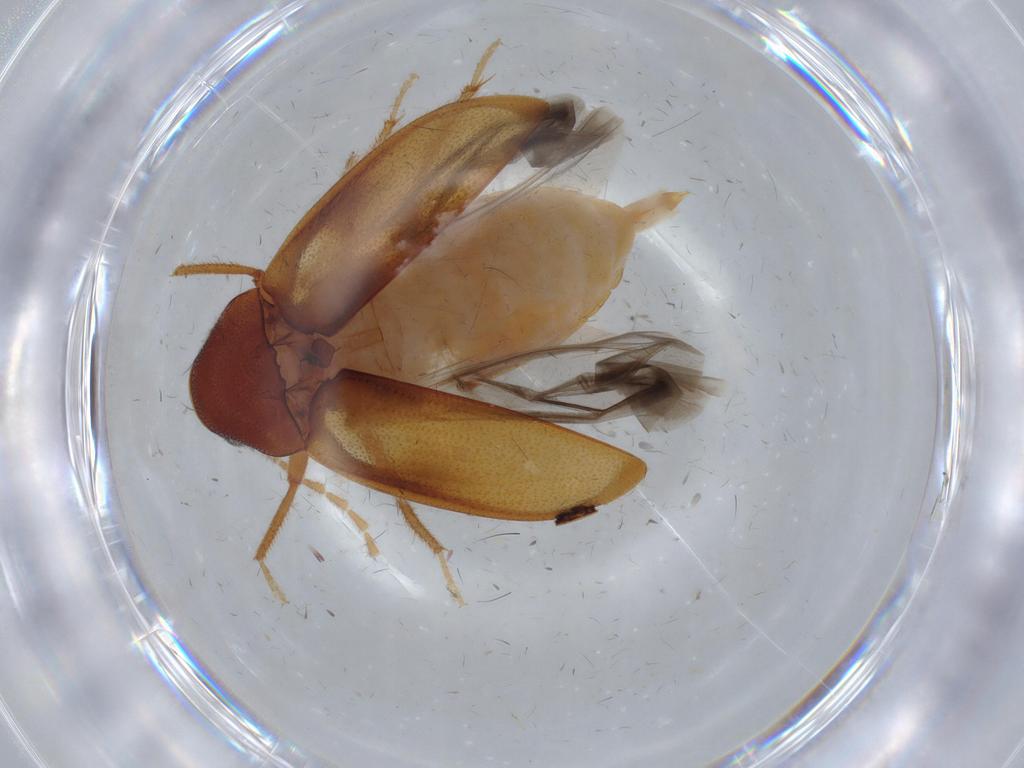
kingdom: Animalia
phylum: Arthropoda
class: Insecta
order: Coleoptera
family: Ptilodactylidae
